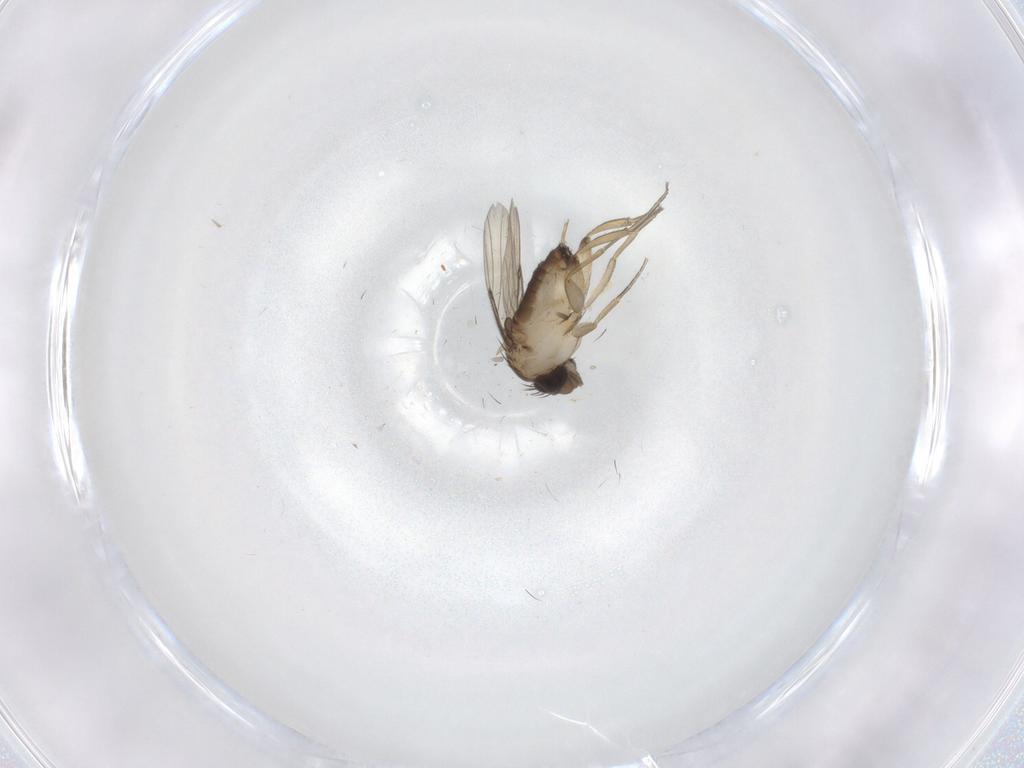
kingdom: Animalia
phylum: Arthropoda
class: Insecta
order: Diptera
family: Phoridae
